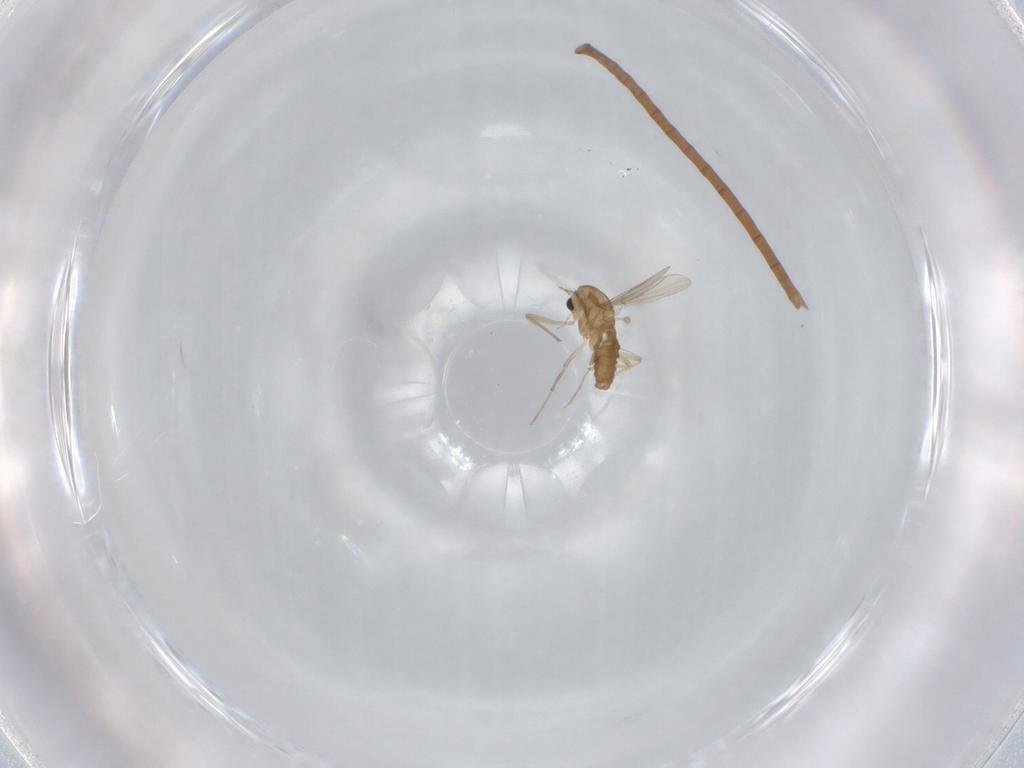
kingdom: Animalia
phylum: Arthropoda
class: Insecta
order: Diptera
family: Chironomidae
